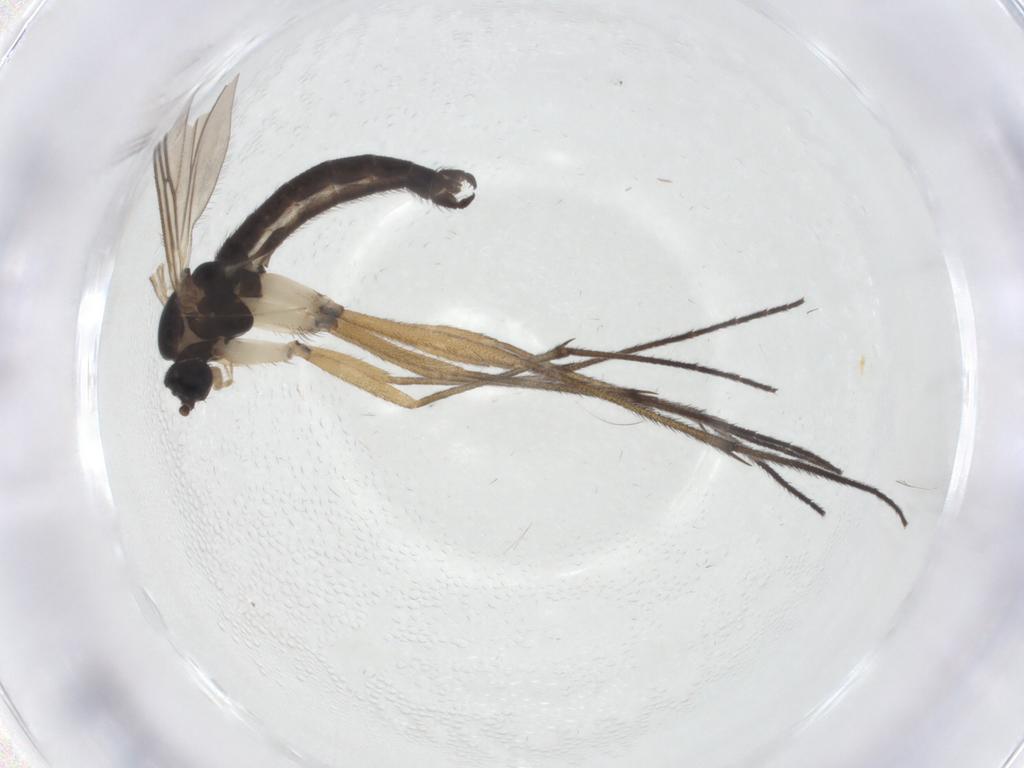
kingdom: Animalia
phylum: Arthropoda
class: Insecta
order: Diptera
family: Sciaridae
